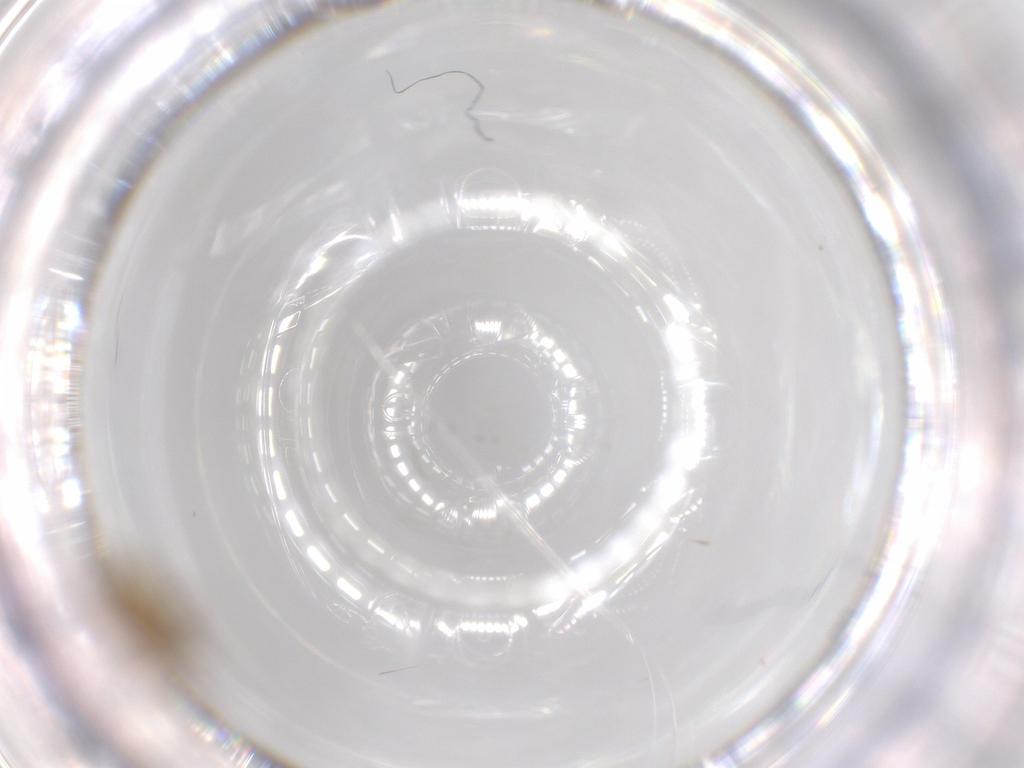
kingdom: Animalia
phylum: Arthropoda
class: Insecta
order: Diptera
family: Ceratopogonidae
